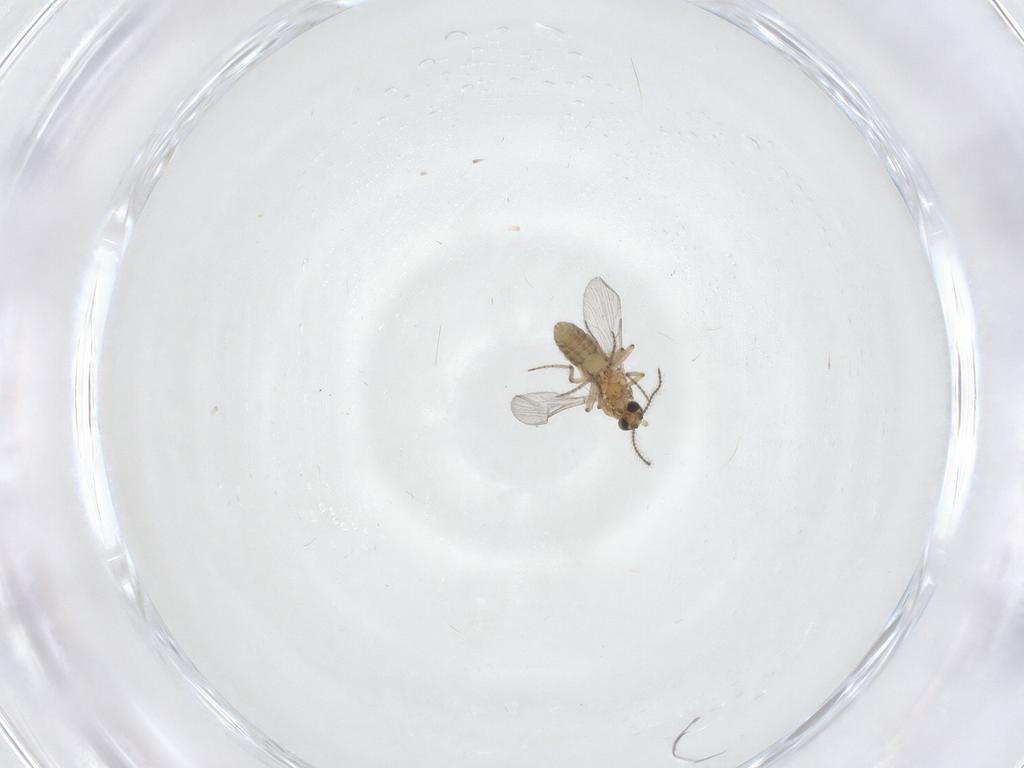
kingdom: Animalia
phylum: Arthropoda
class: Insecta
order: Diptera
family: Ceratopogonidae
